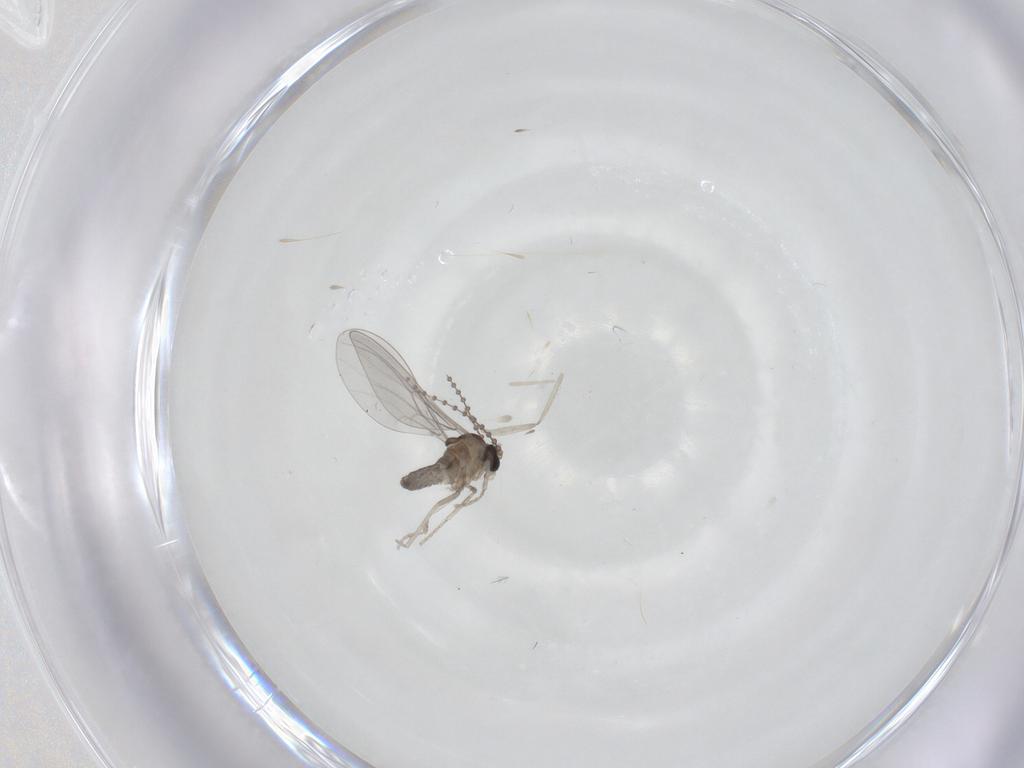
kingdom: Animalia
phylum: Arthropoda
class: Insecta
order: Diptera
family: Cecidomyiidae
